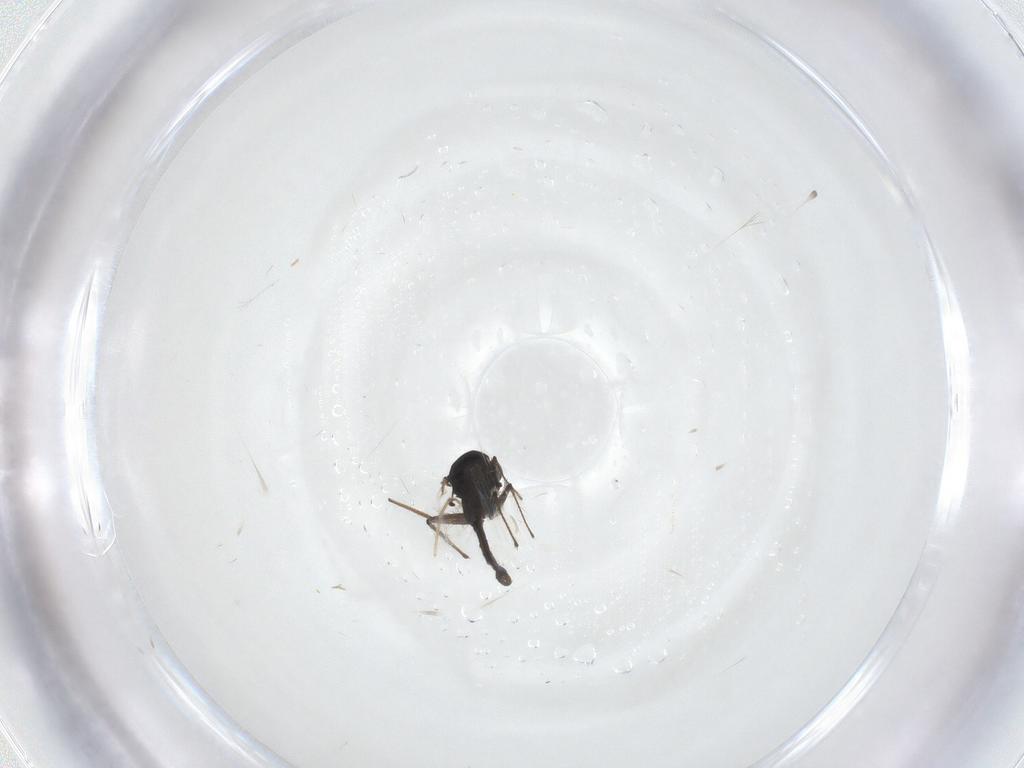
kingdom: Animalia
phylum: Arthropoda
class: Insecta
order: Diptera
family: Chironomidae
